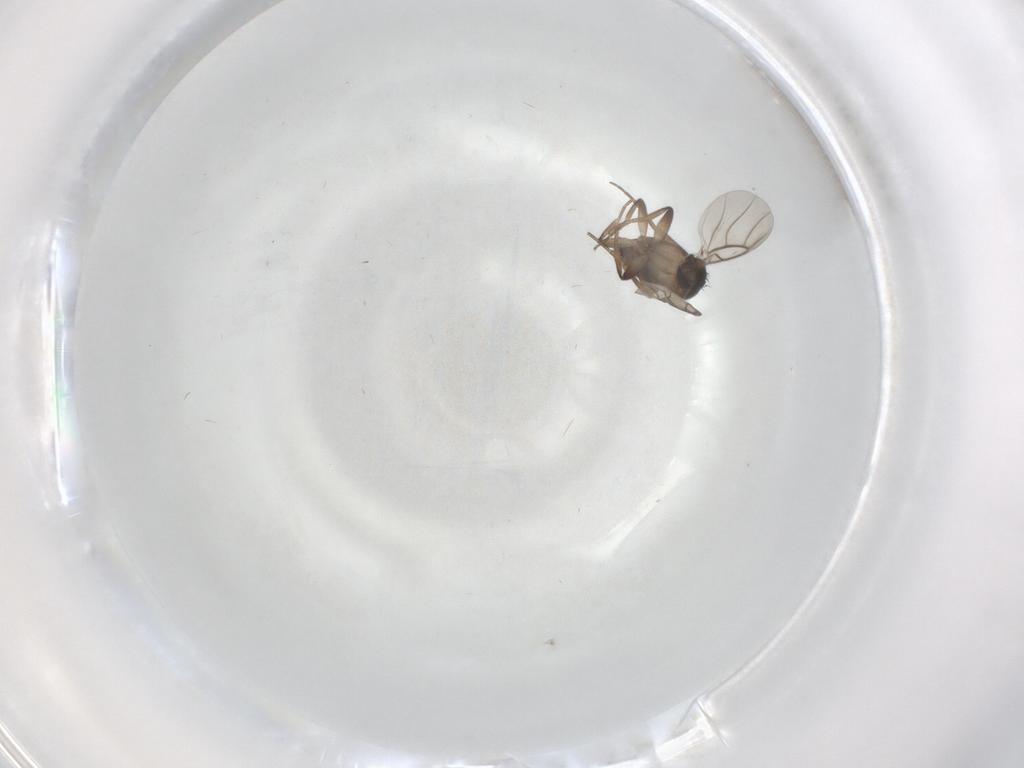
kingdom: Animalia
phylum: Arthropoda
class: Insecta
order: Diptera
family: Phoridae
